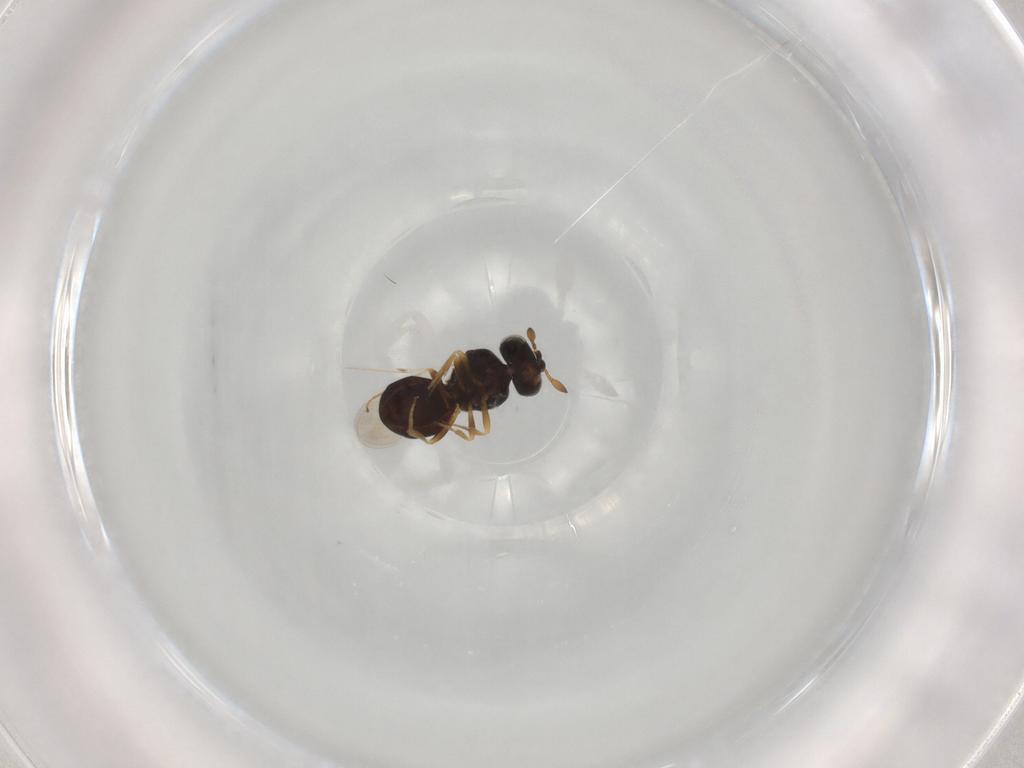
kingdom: Animalia
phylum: Arthropoda
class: Insecta
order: Hymenoptera
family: Scelionidae
